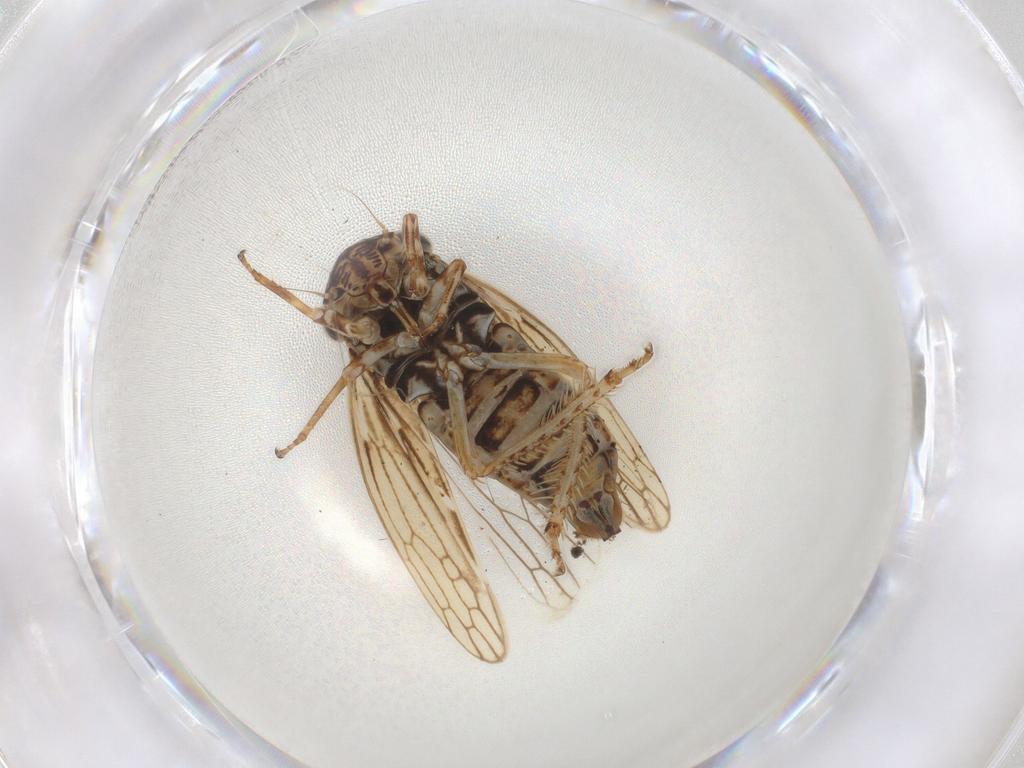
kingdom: Animalia
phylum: Arthropoda
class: Insecta
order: Hemiptera
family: Cicadellidae
